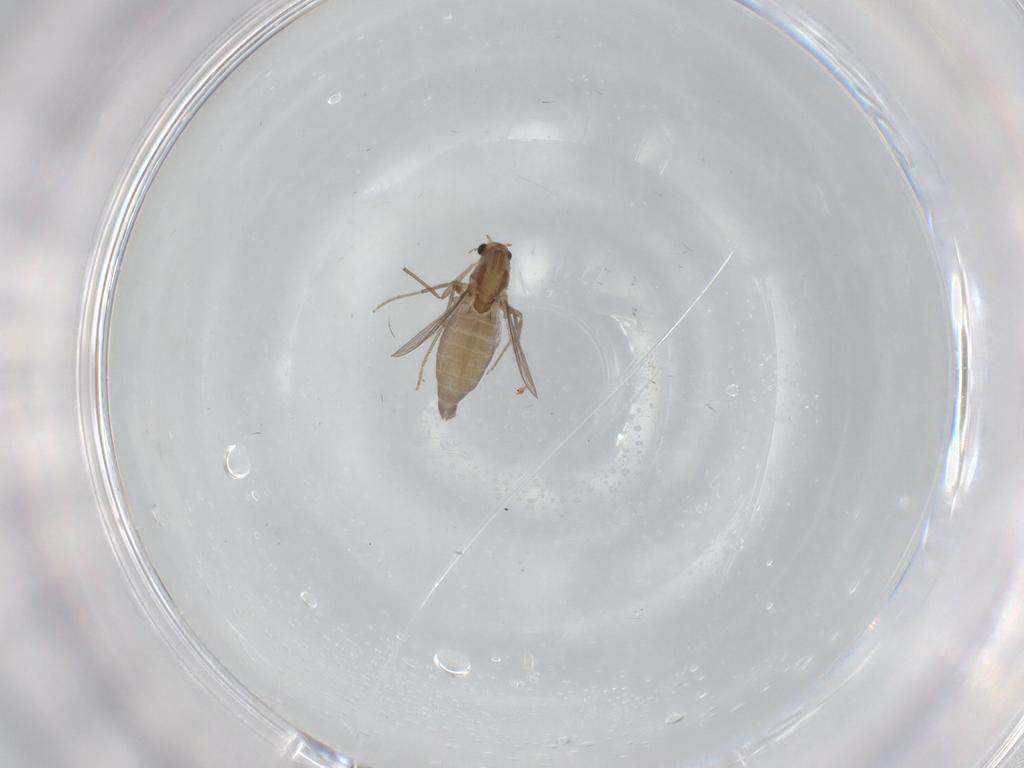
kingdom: Animalia
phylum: Arthropoda
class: Insecta
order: Diptera
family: Chironomidae
